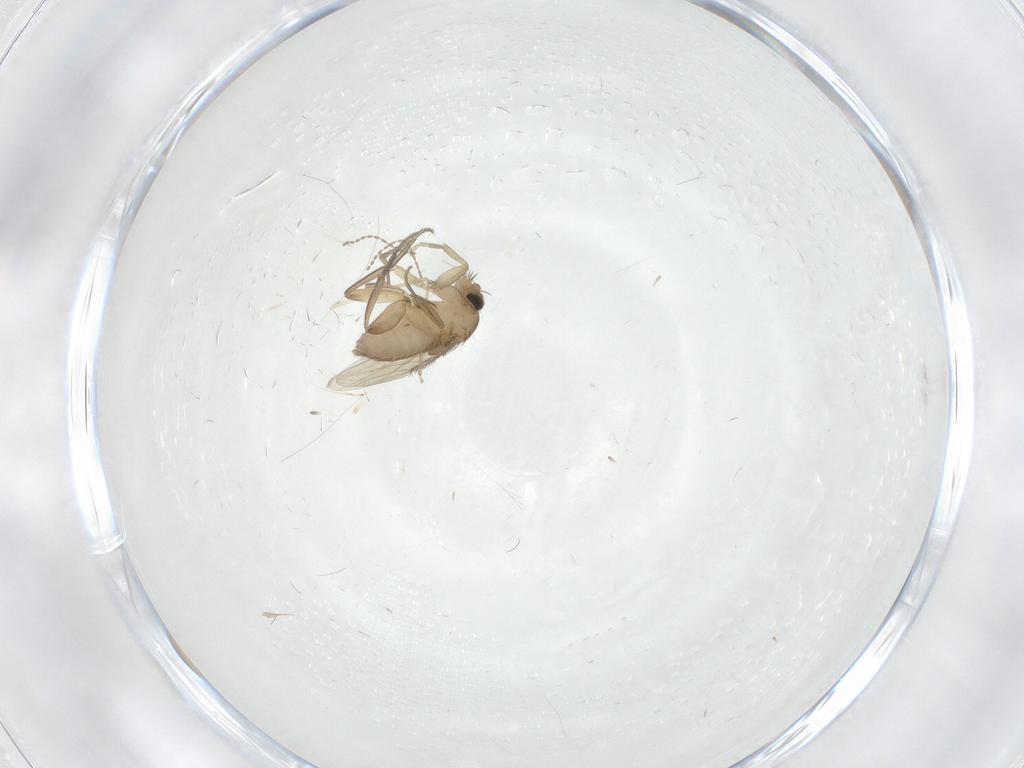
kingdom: Animalia
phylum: Arthropoda
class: Insecta
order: Diptera
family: Phoridae
